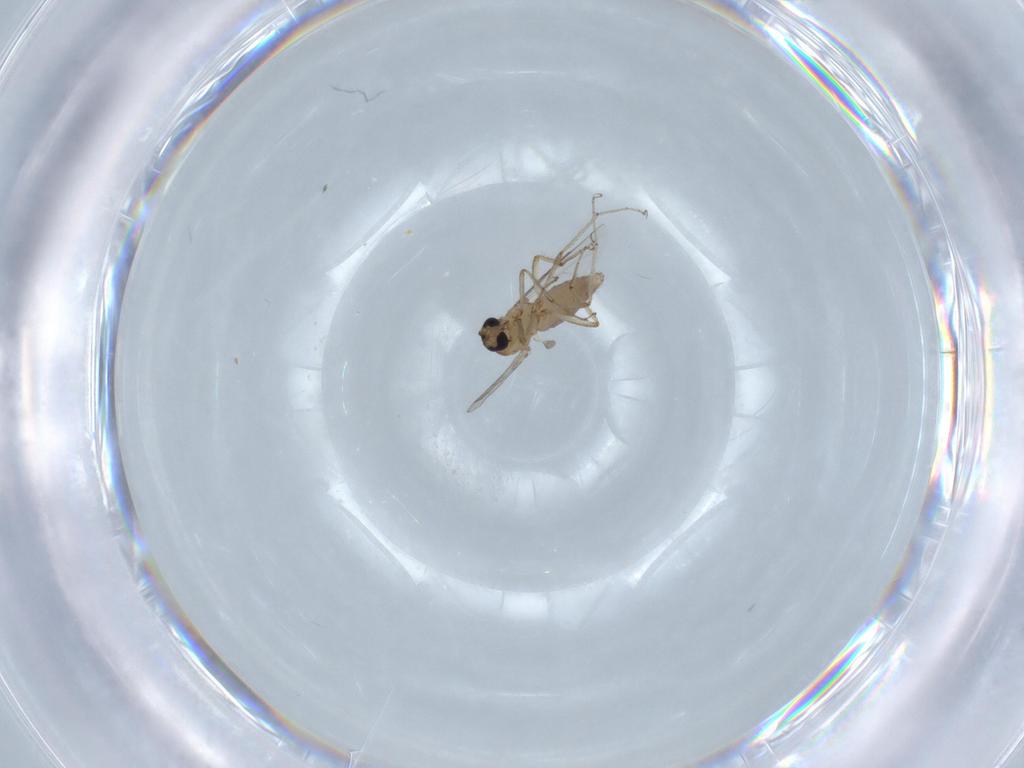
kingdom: Animalia
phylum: Arthropoda
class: Insecta
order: Diptera
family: Ceratopogonidae
